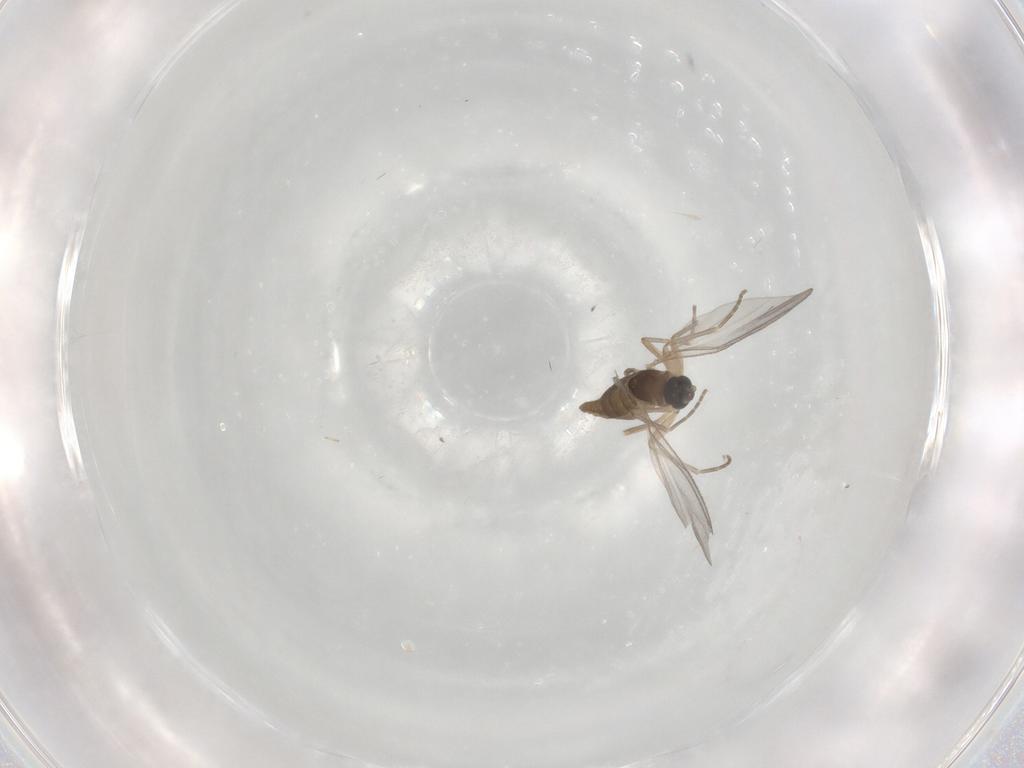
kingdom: Animalia
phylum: Arthropoda
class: Insecta
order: Diptera
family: Sciaridae
